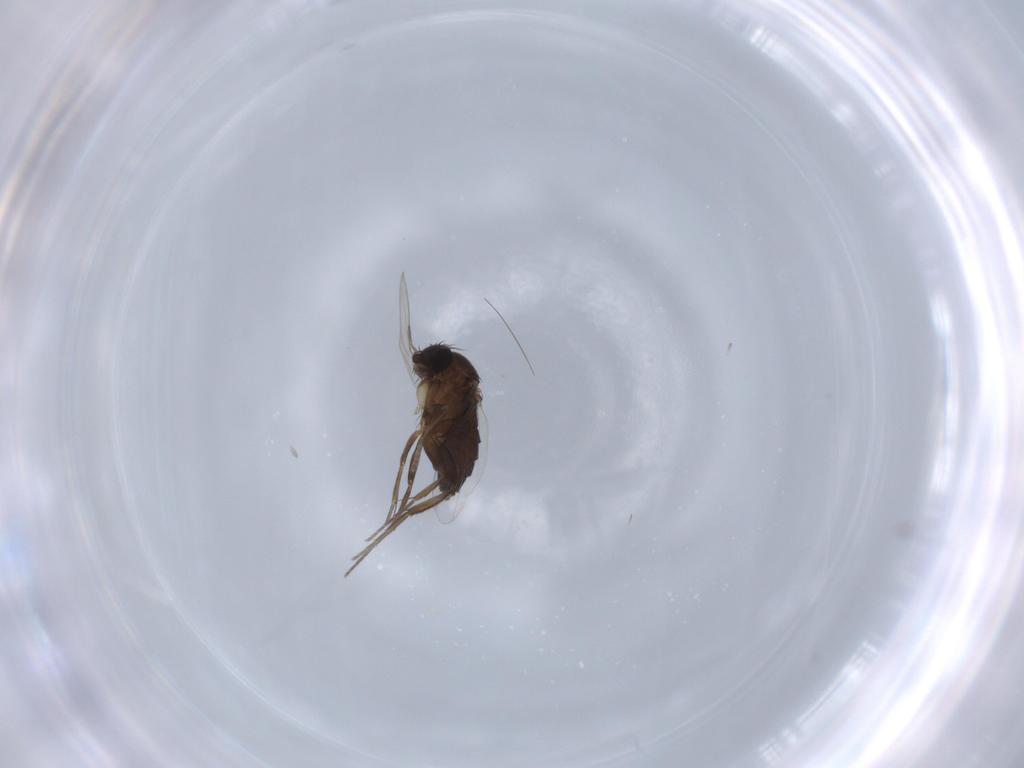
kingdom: Animalia
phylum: Arthropoda
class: Insecta
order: Diptera
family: Phoridae
